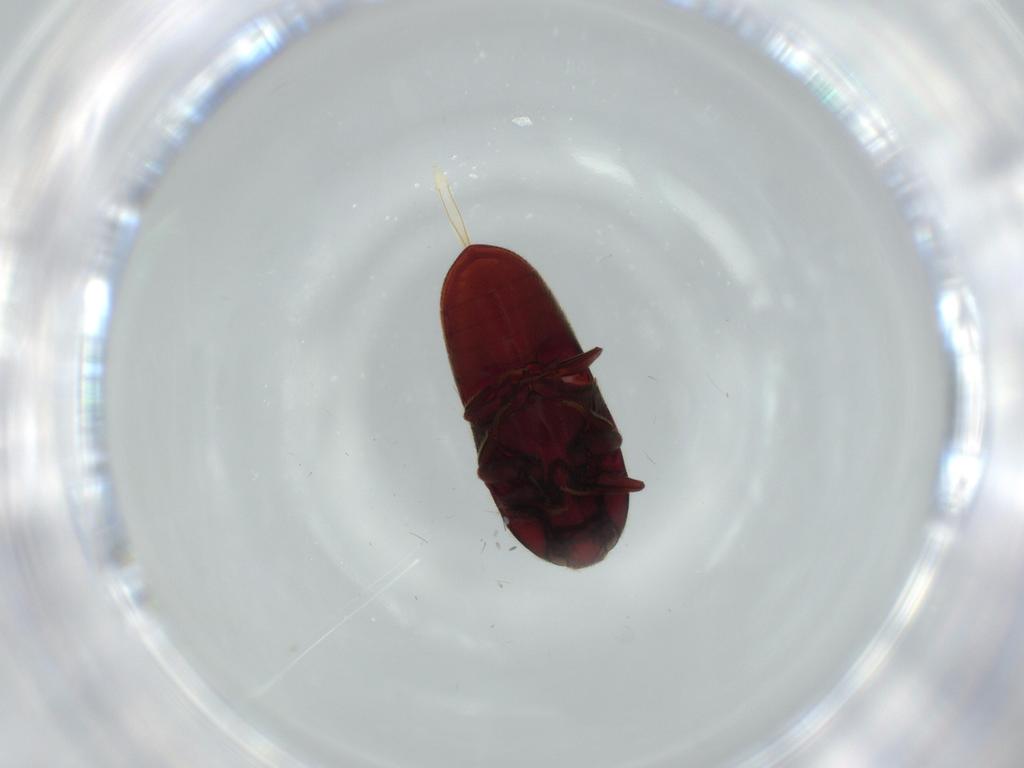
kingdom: Animalia
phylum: Arthropoda
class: Insecta
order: Coleoptera
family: Throscidae
